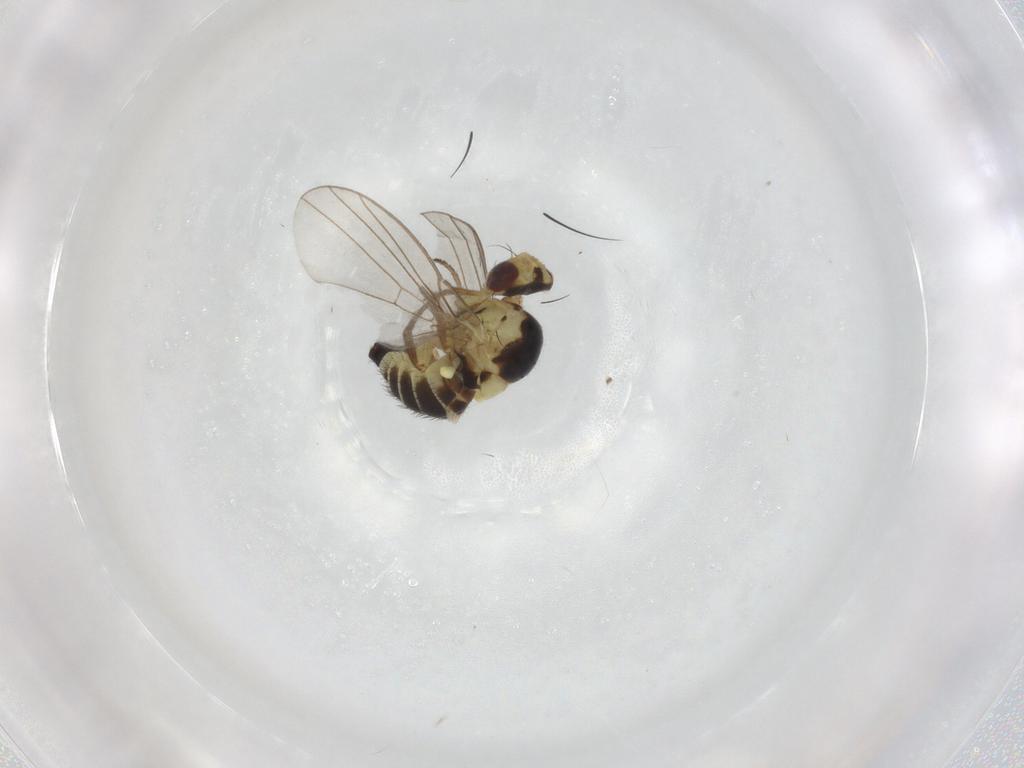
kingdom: Animalia
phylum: Arthropoda
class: Insecta
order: Diptera
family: Agromyzidae
